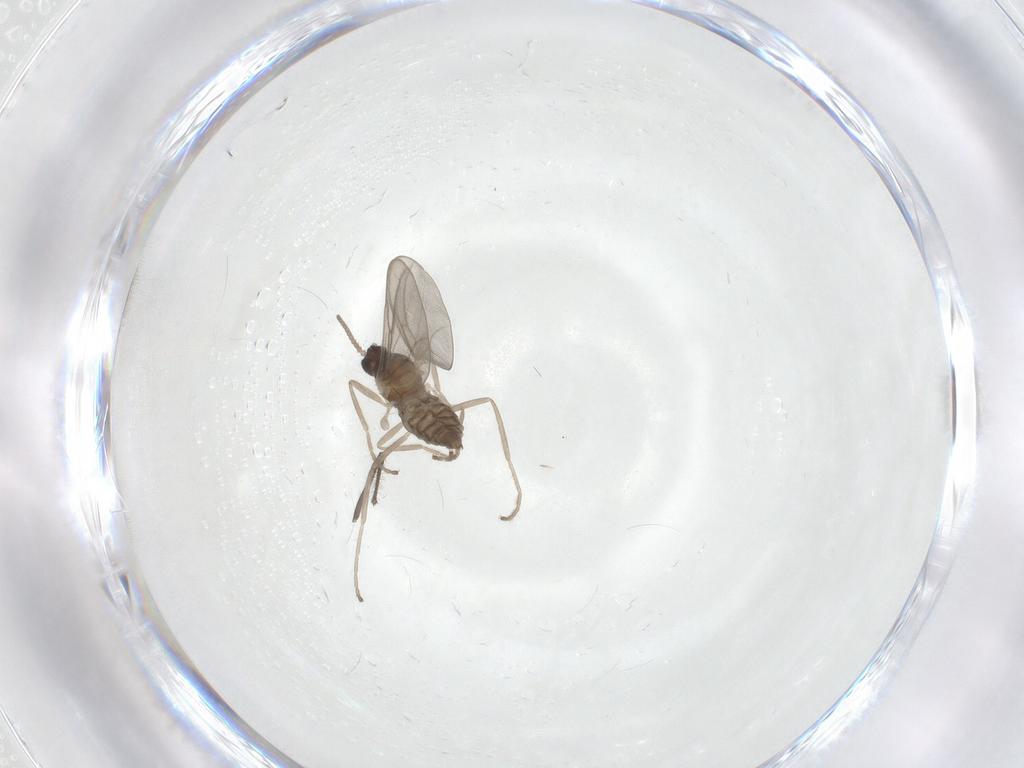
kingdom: Animalia
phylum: Arthropoda
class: Insecta
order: Diptera
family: Cecidomyiidae
